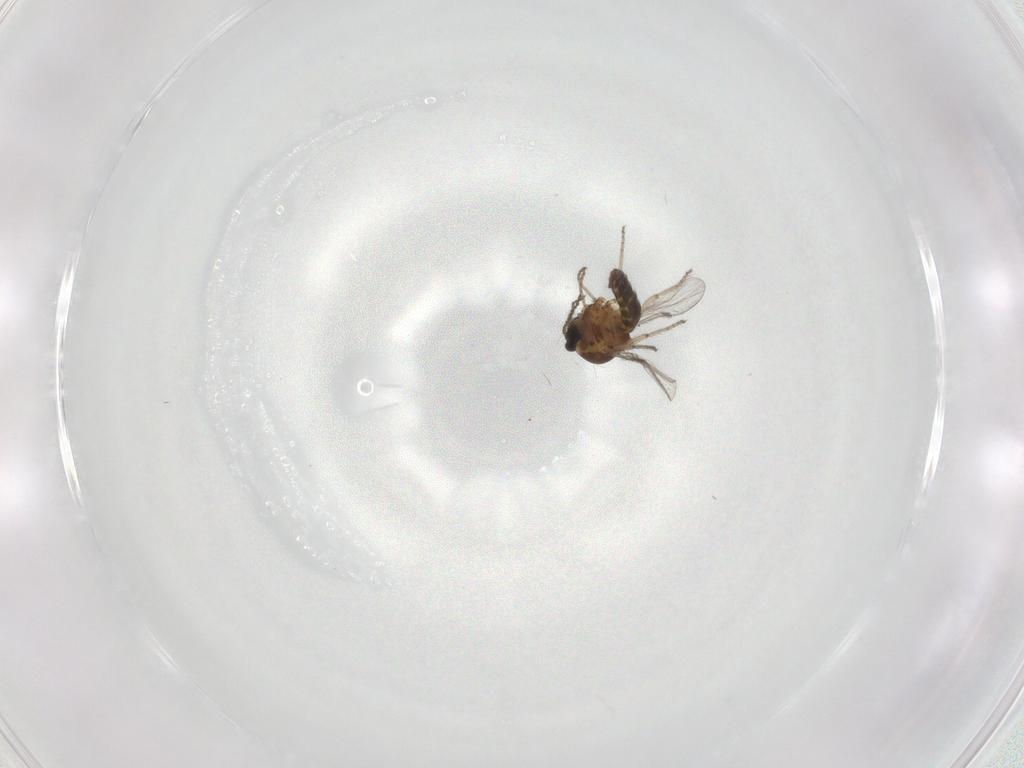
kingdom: Animalia
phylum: Arthropoda
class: Insecta
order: Diptera
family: Ceratopogonidae
